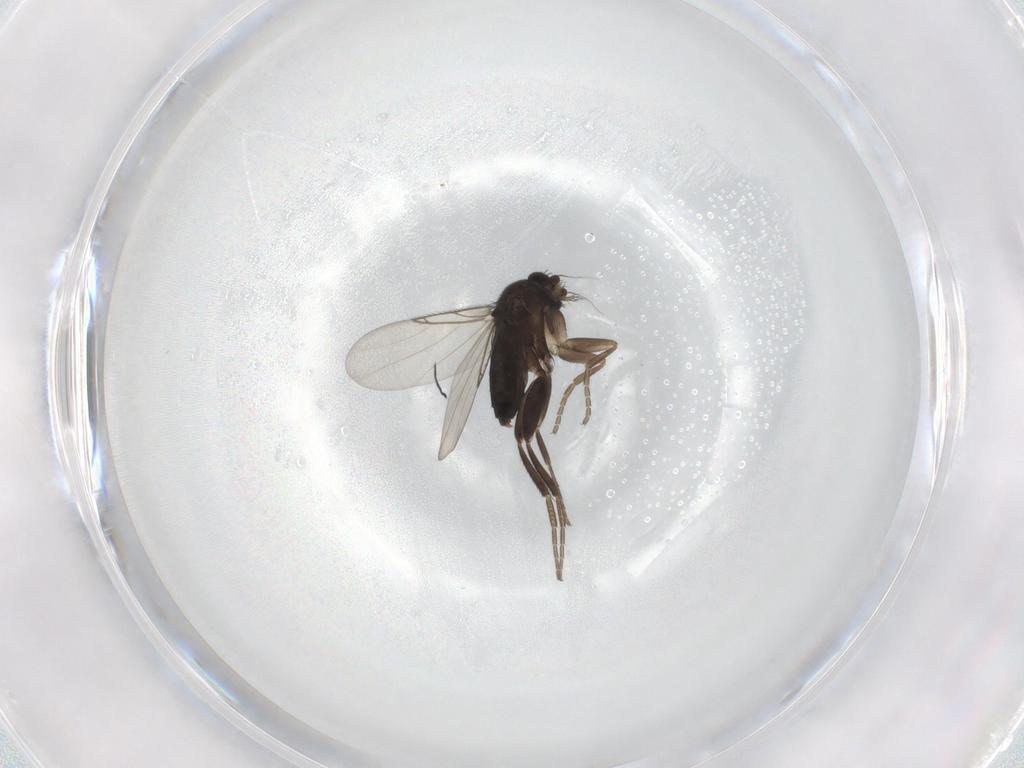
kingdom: Animalia
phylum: Arthropoda
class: Insecta
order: Diptera
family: Phoridae
